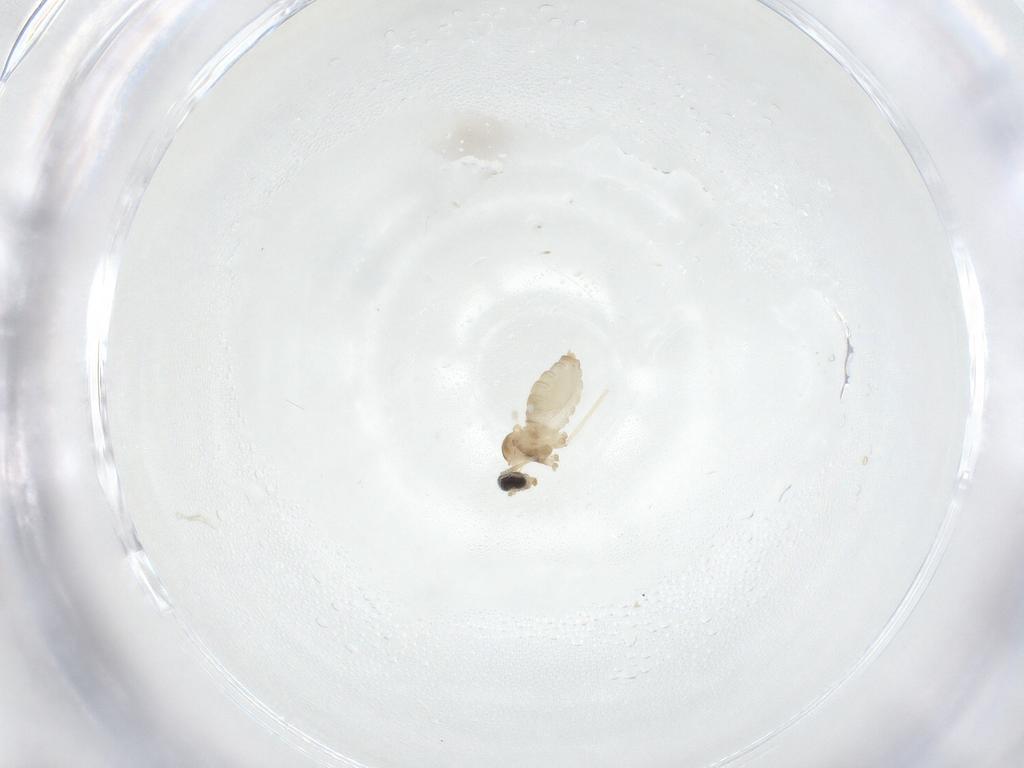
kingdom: Animalia
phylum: Arthropoda
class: Insecta
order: Diptera
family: Cecidomyiidae
